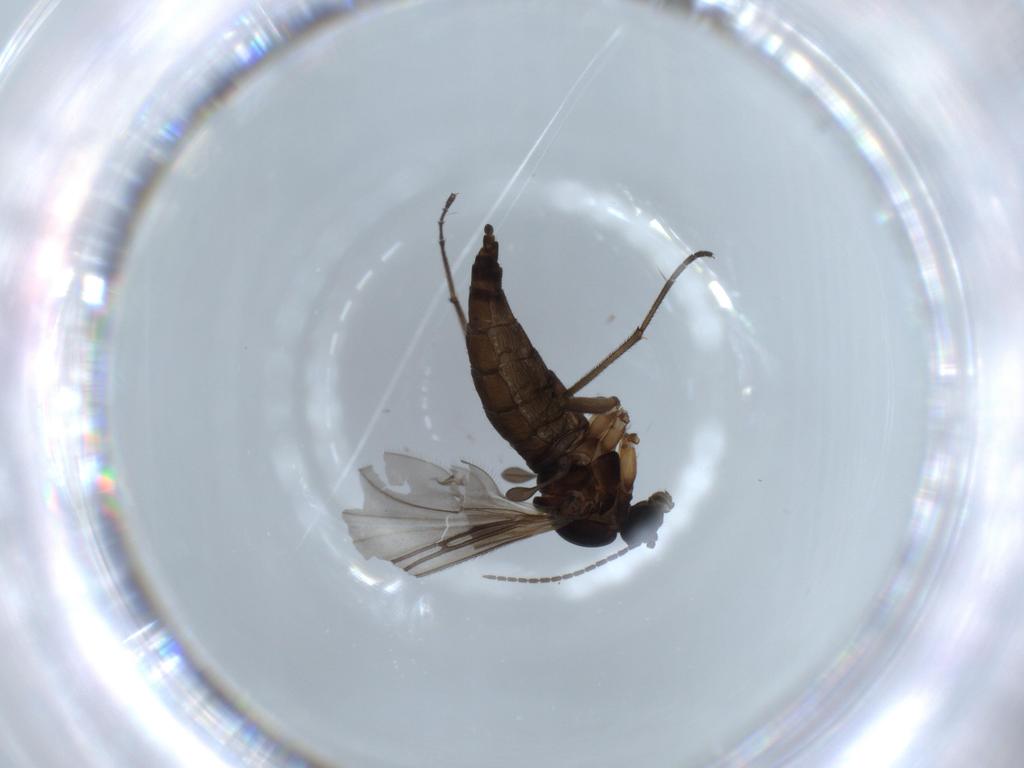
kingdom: Animalia
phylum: Arthropoda
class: Insecta
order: Diptera
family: Sciaridae
